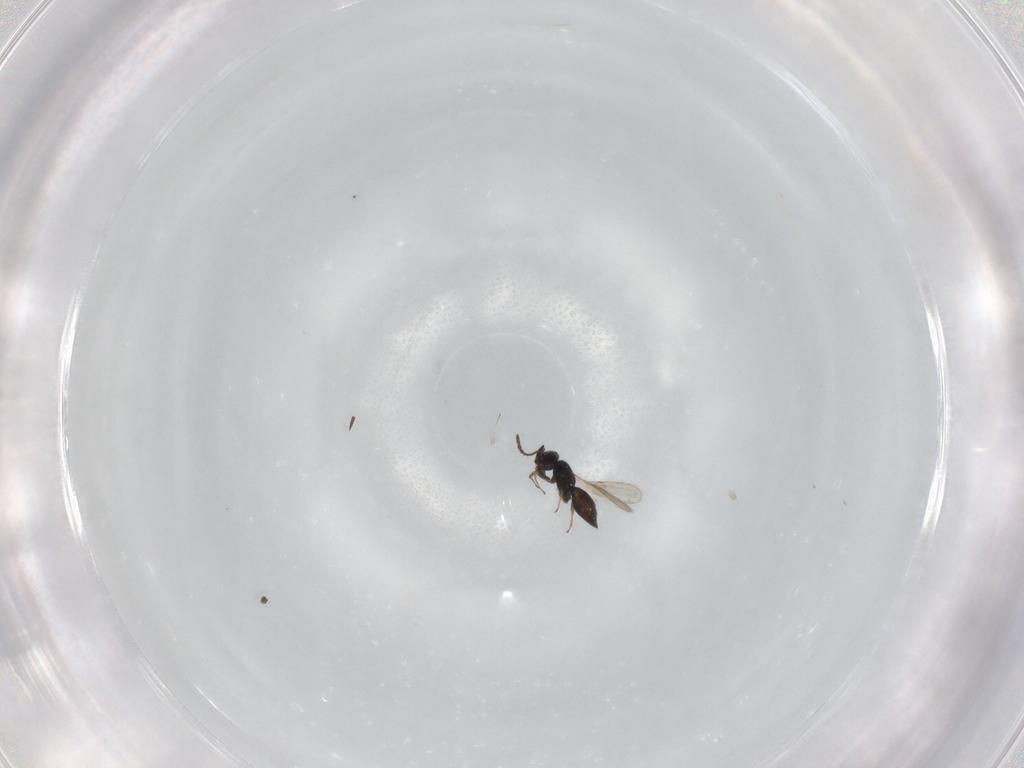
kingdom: Animalia
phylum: Arthropoda
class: Insecta
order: Hymenoptera
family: Scelionidae
